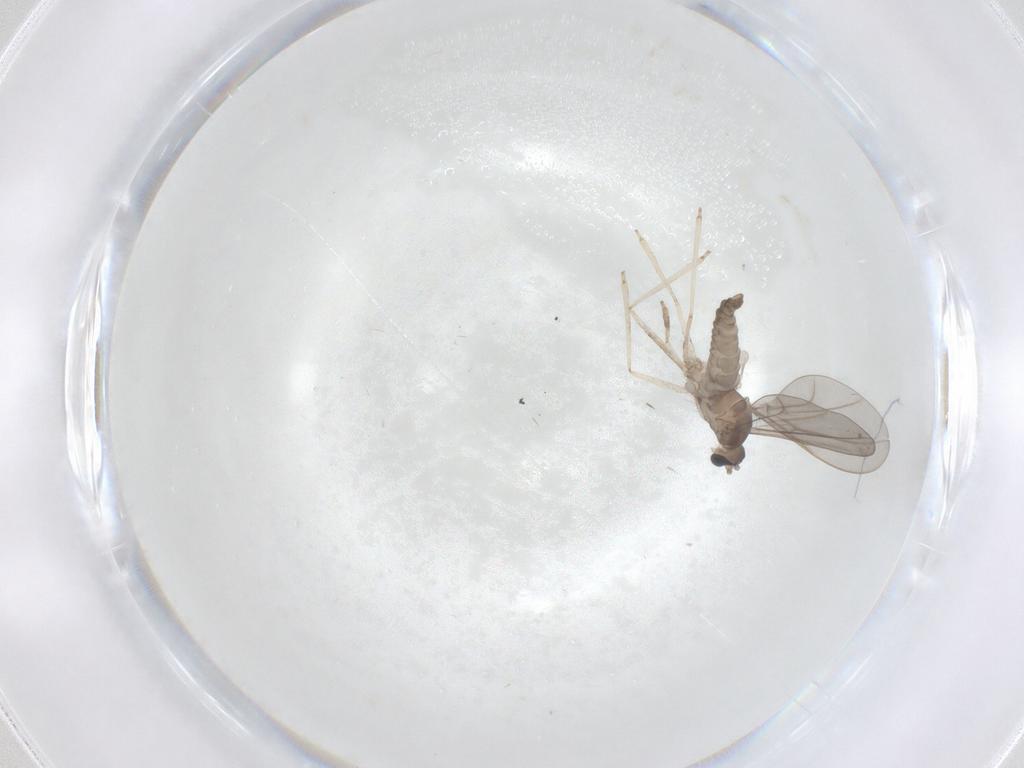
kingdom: Animalia
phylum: Arthropoda
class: Insecta
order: Diptera
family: Cecidomyiidae
